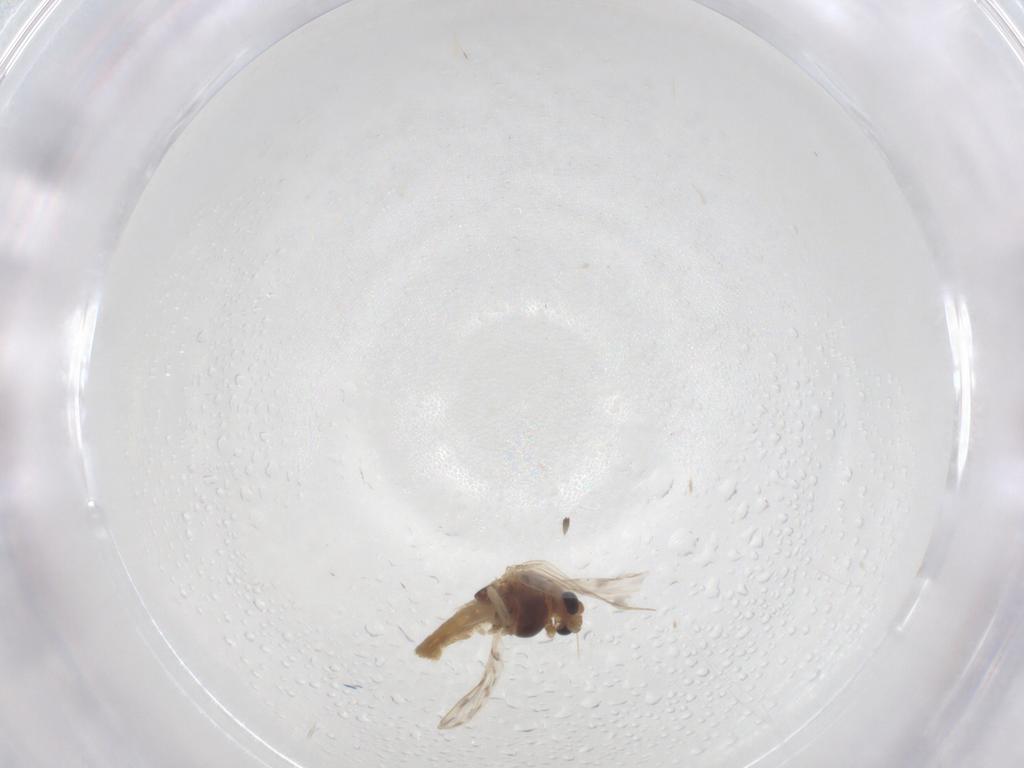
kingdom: Animalia
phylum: Arthropoda
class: Insecta
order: Diptera
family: Chironomidae
